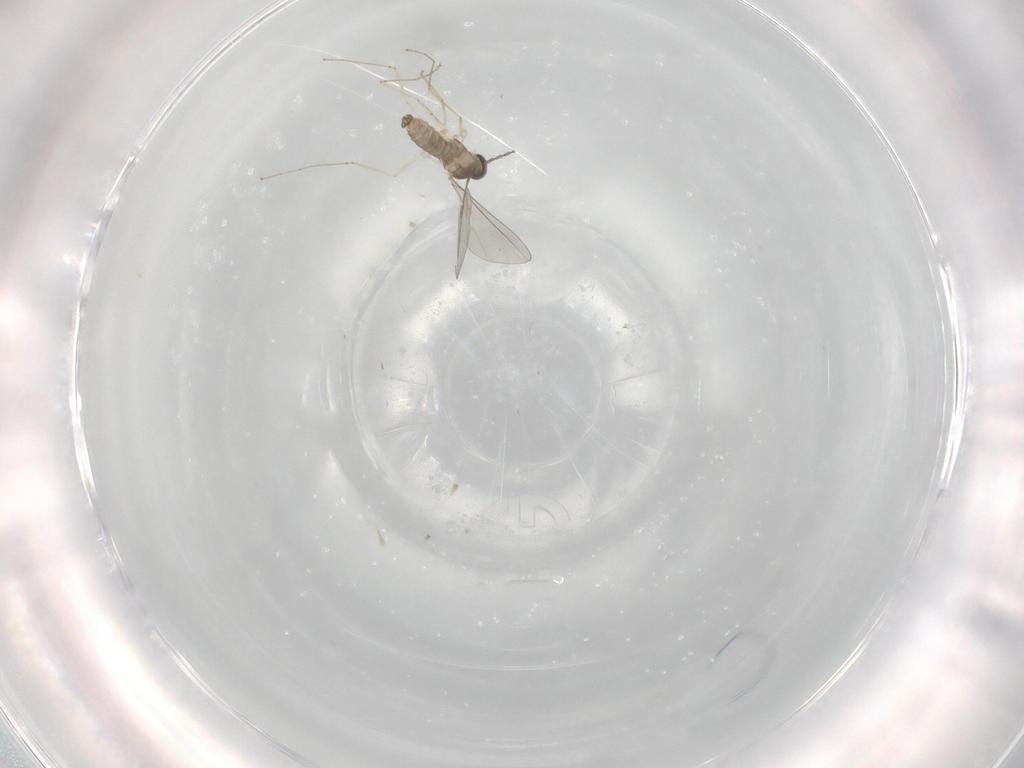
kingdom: Animalia
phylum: Arthropoda
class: Insecta
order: Diptera
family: Cecidomyiidae
